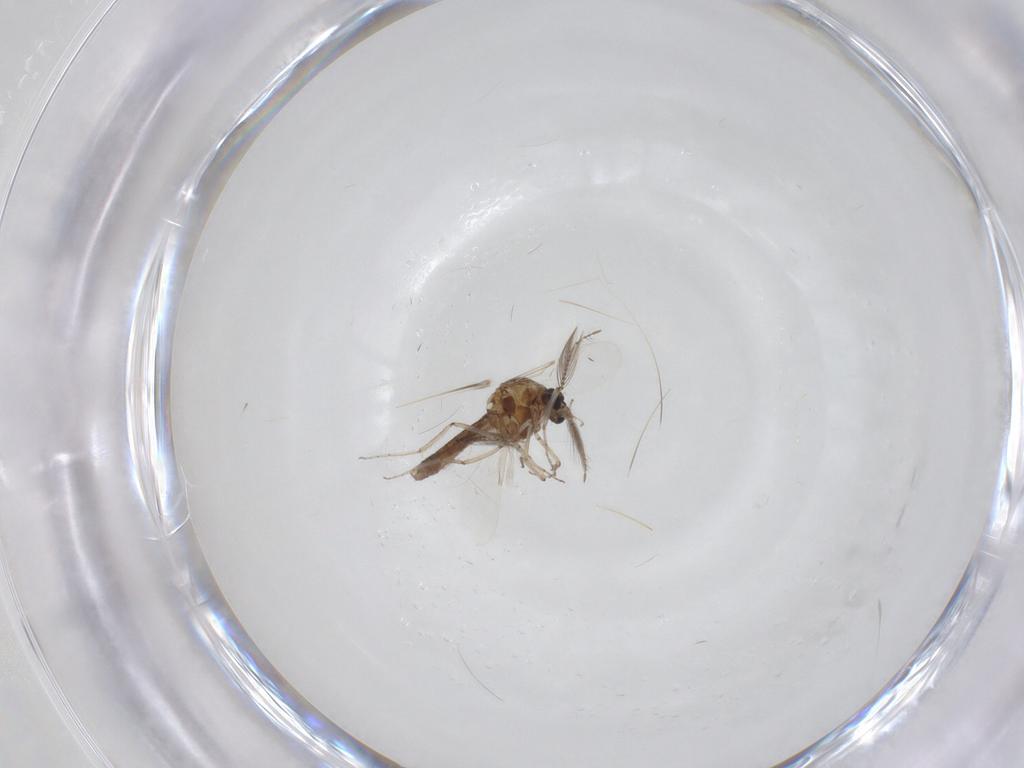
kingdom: Animalia
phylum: Arthropoda
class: Insecta
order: Diptera
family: Ceratopogonidae
